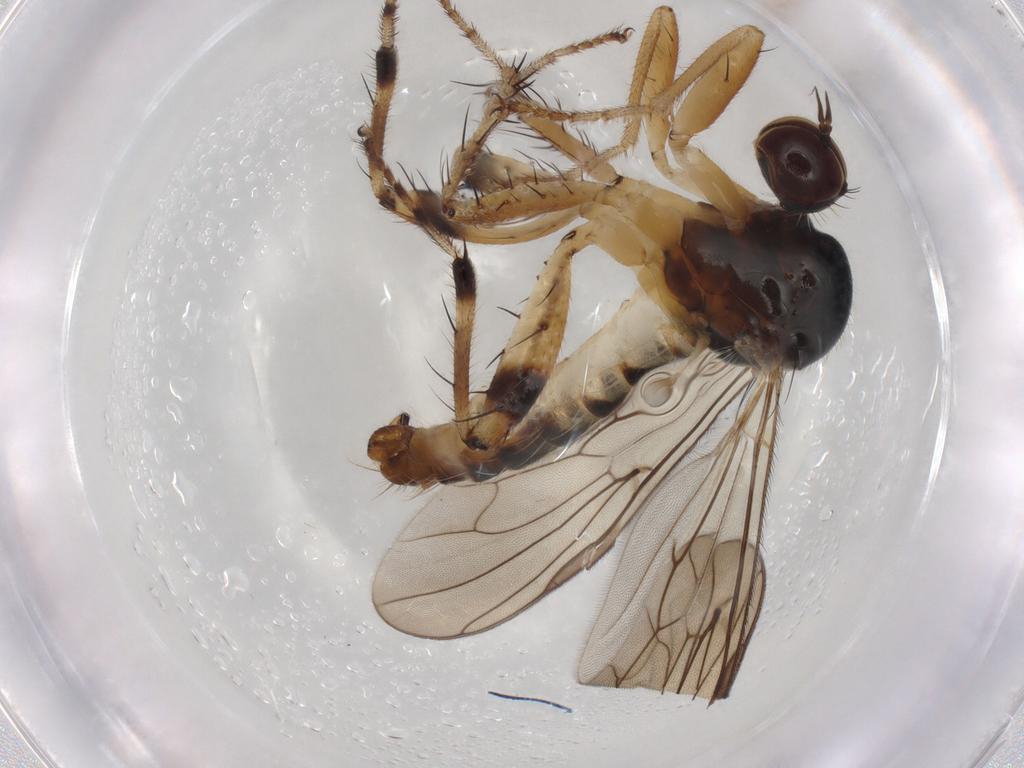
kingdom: Animalia
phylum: Arthropoda
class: Insecta
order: Diptera
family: Hybotidae
